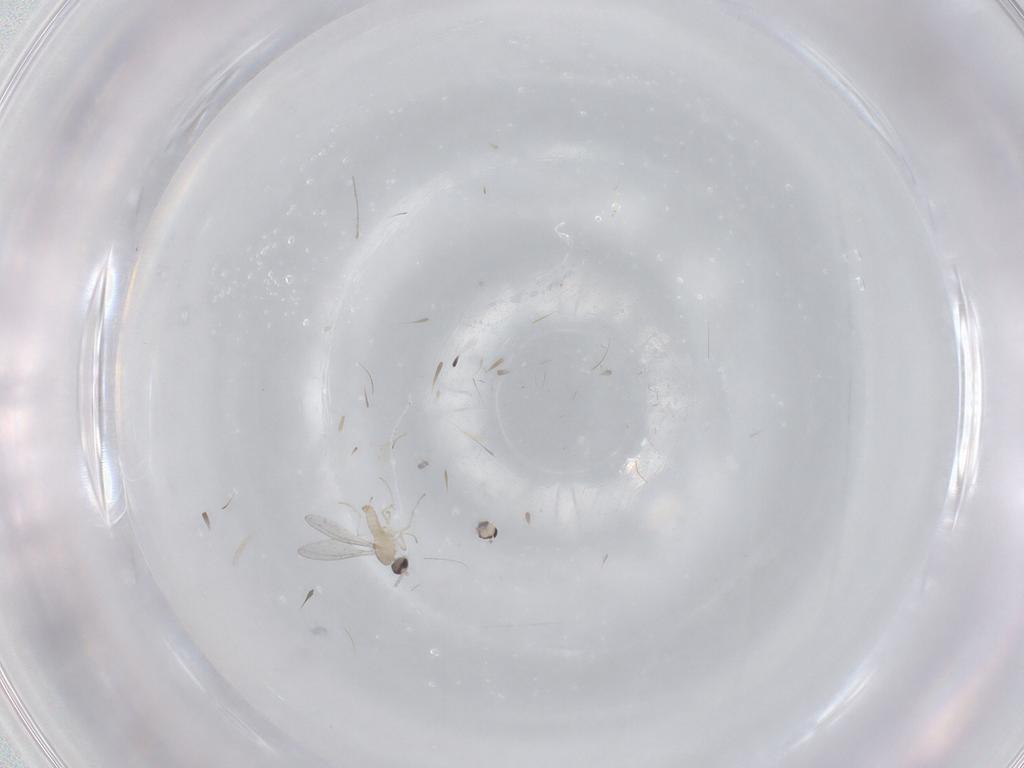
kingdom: Animalia
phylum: Arthropoda
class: Insecta
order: Diptera
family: Cecidomyiidae
